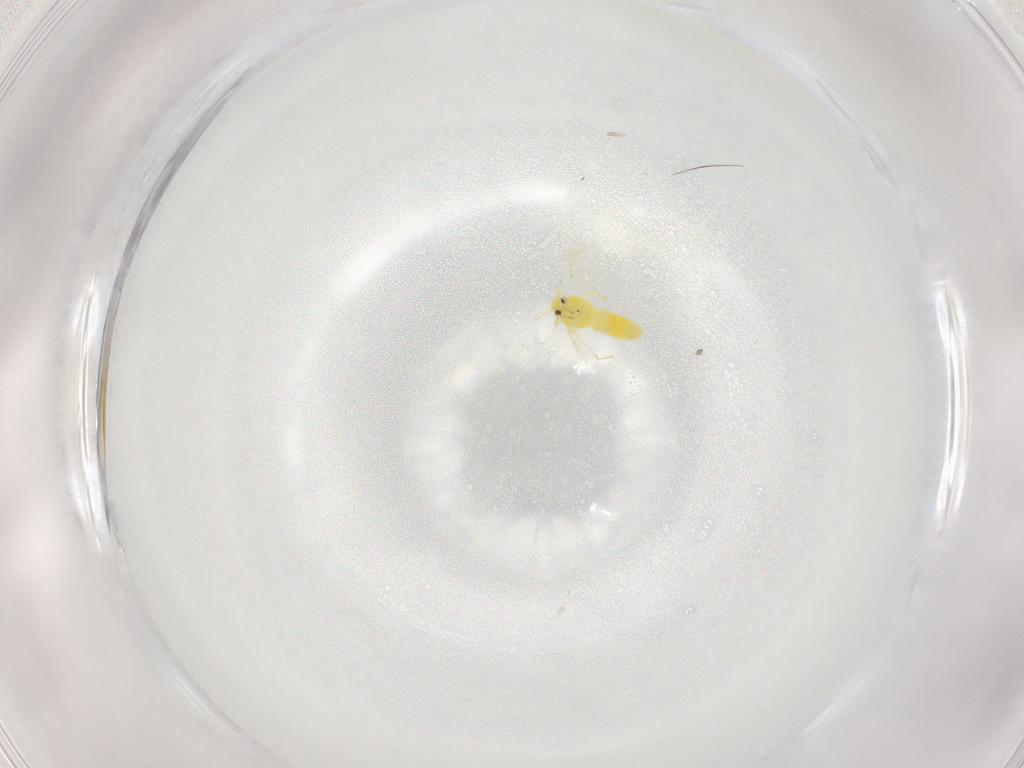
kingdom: Animalia
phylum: Arthropoda
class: Insecta
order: Hemiptera
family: Aleyrodidae
